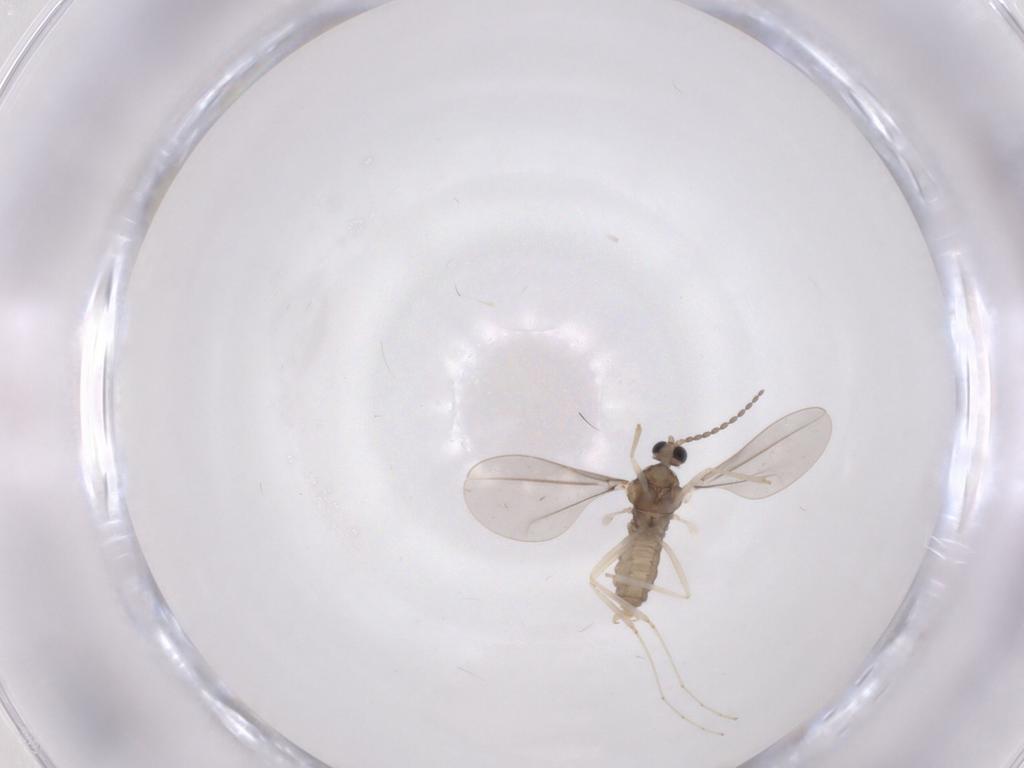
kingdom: Animalia
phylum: Arthropoda
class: Insecta
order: Diptera
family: Cecidomyiidae
